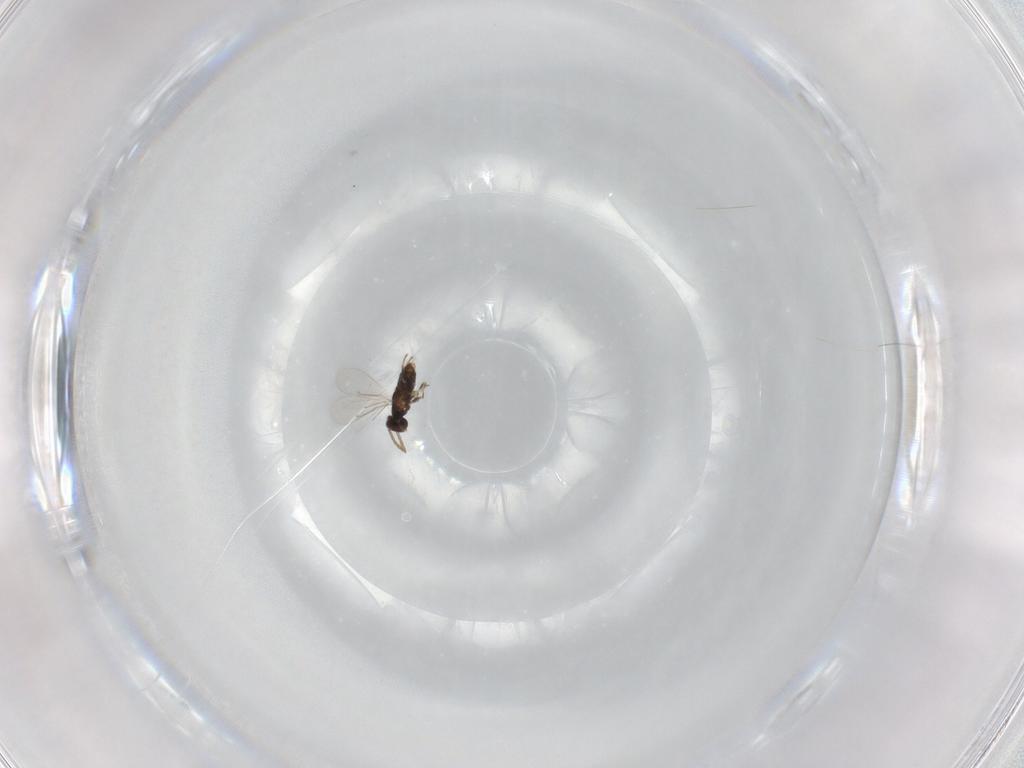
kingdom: Animalia
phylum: Arthropoda
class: Insecta
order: Hymenoptera
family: Aphelinidae
